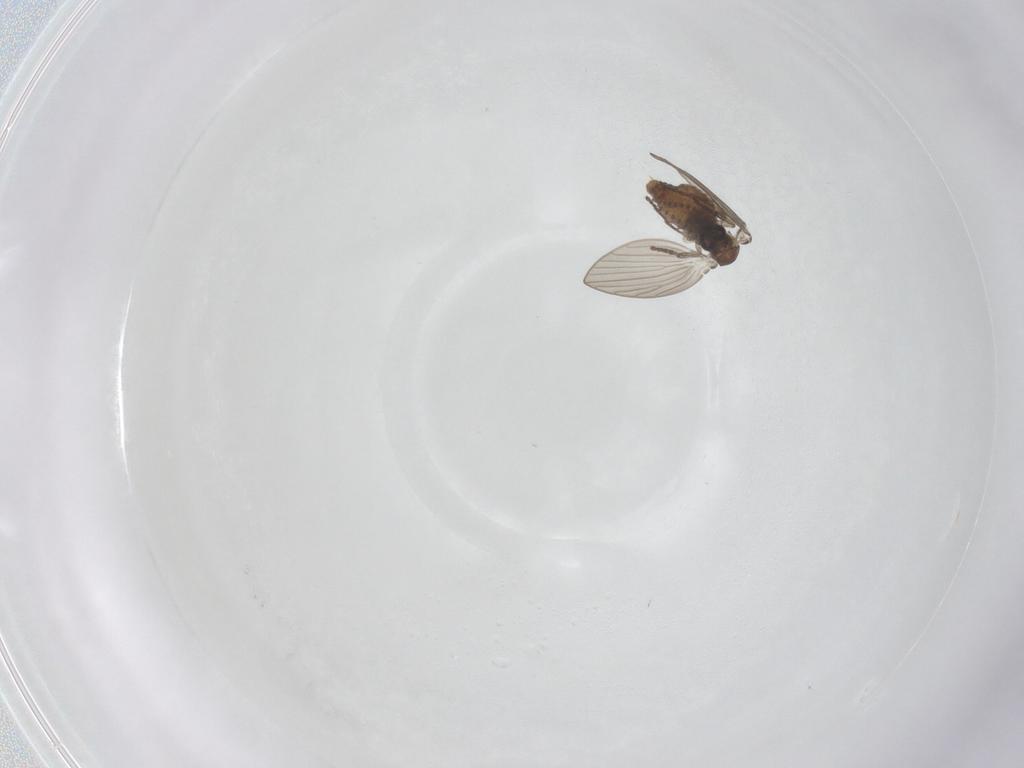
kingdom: Animalia
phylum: Arthropoda
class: Insecta
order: Diptera
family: Psychodidae
